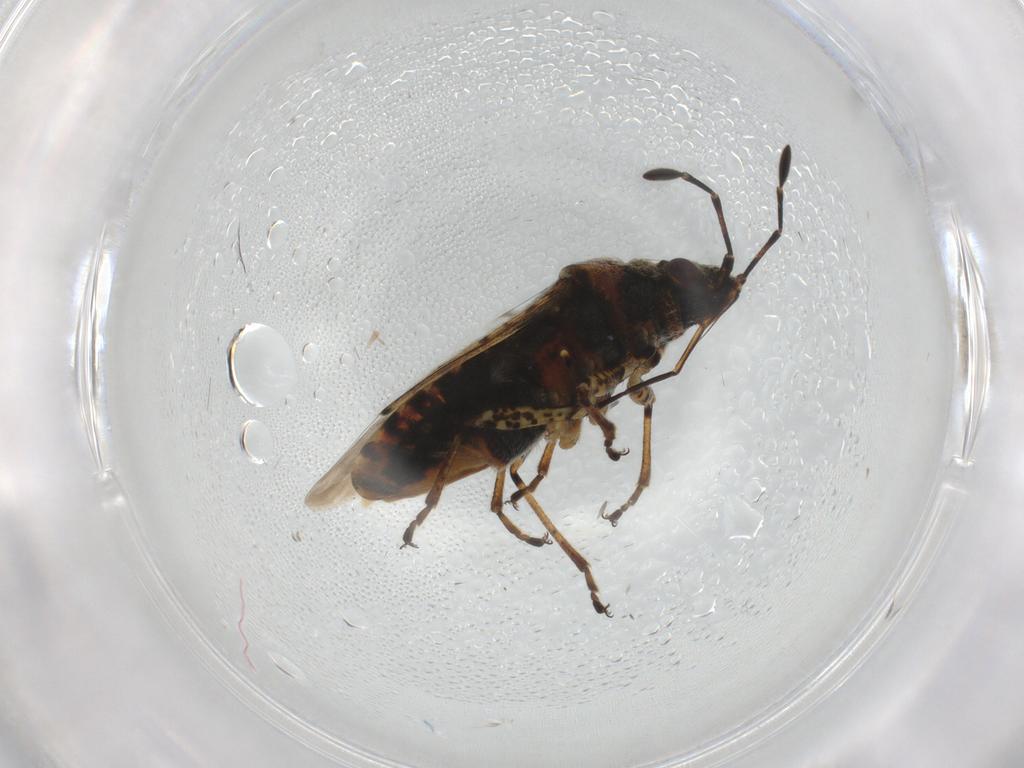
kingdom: Animalia
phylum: Arthropoda
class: Insecta
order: Hemiptera
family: Lygaeidae
